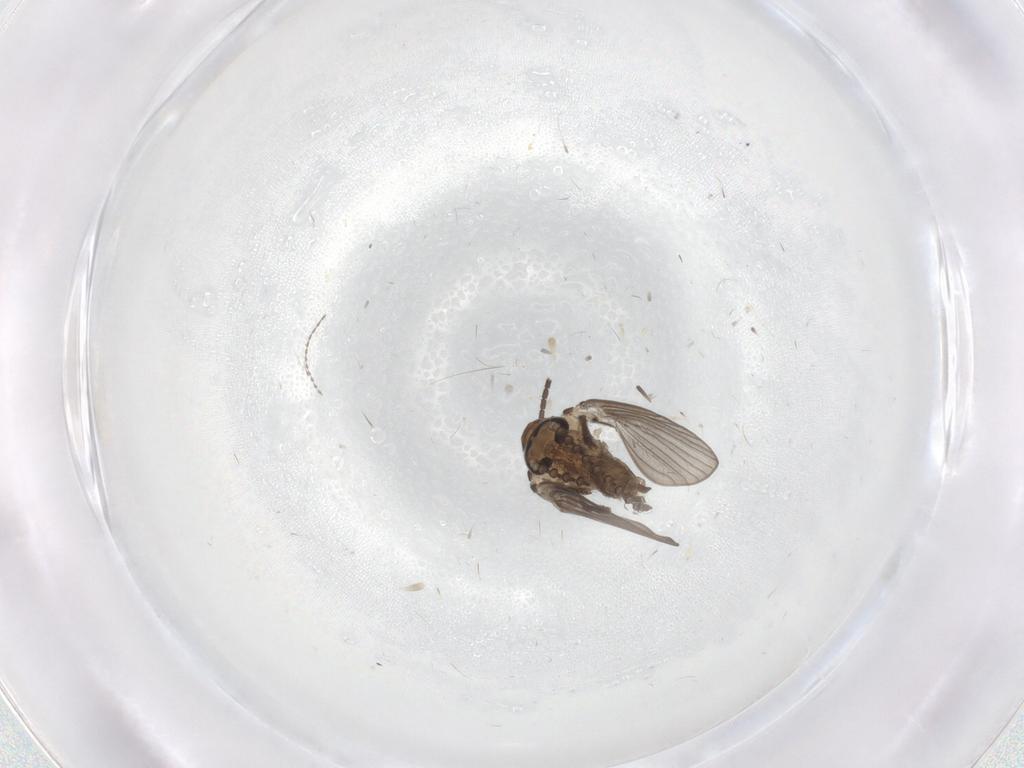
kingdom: Animalia
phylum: Arthropoda
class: Insecta
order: Diptera
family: Psychodidae
